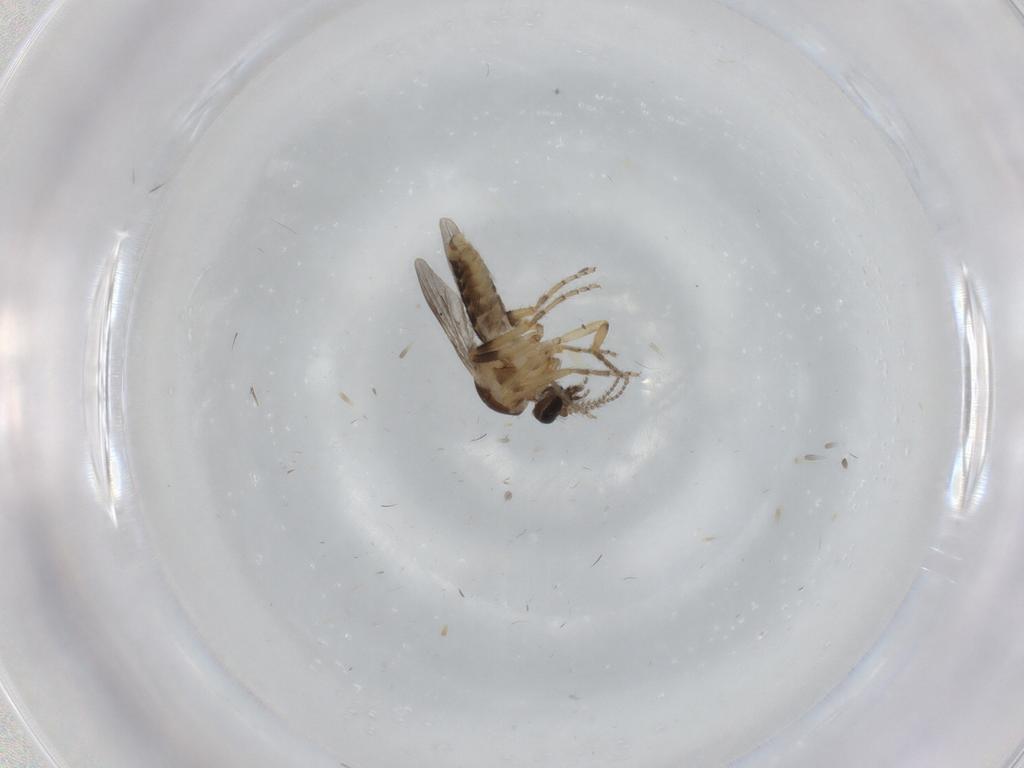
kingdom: Animalia
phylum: Arthropoda
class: Insecta
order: Diptera
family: Ceratopogonidae
